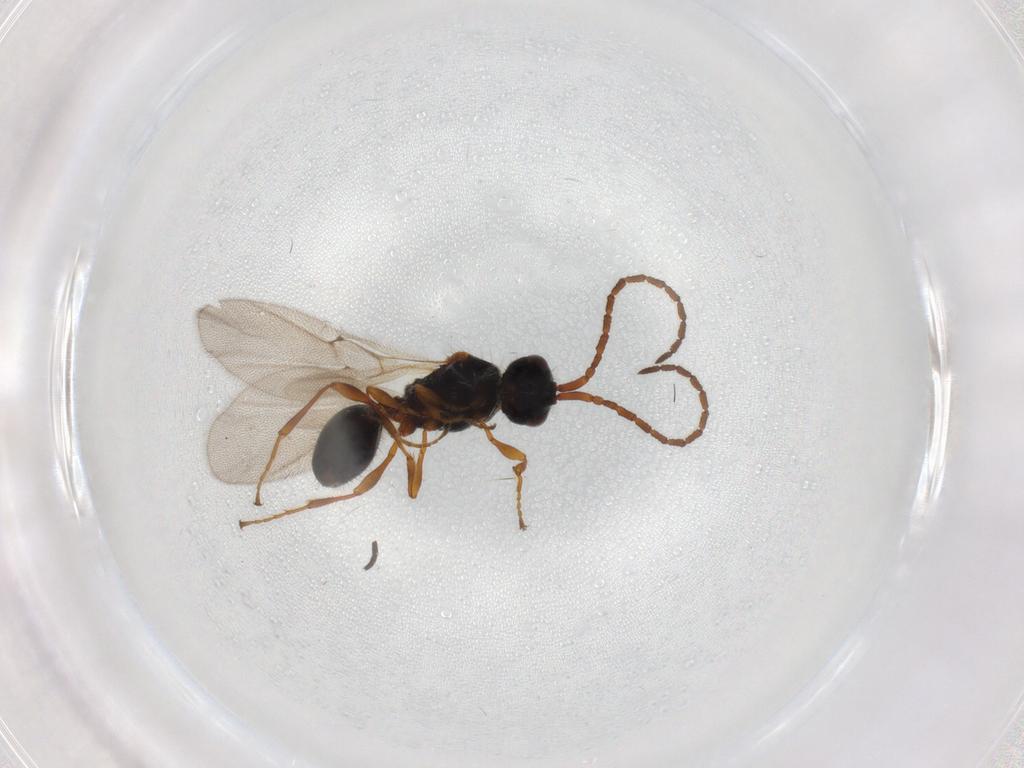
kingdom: Animalia
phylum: Arthropoda
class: Insecta
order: Hymenoptera
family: Diapriidae
